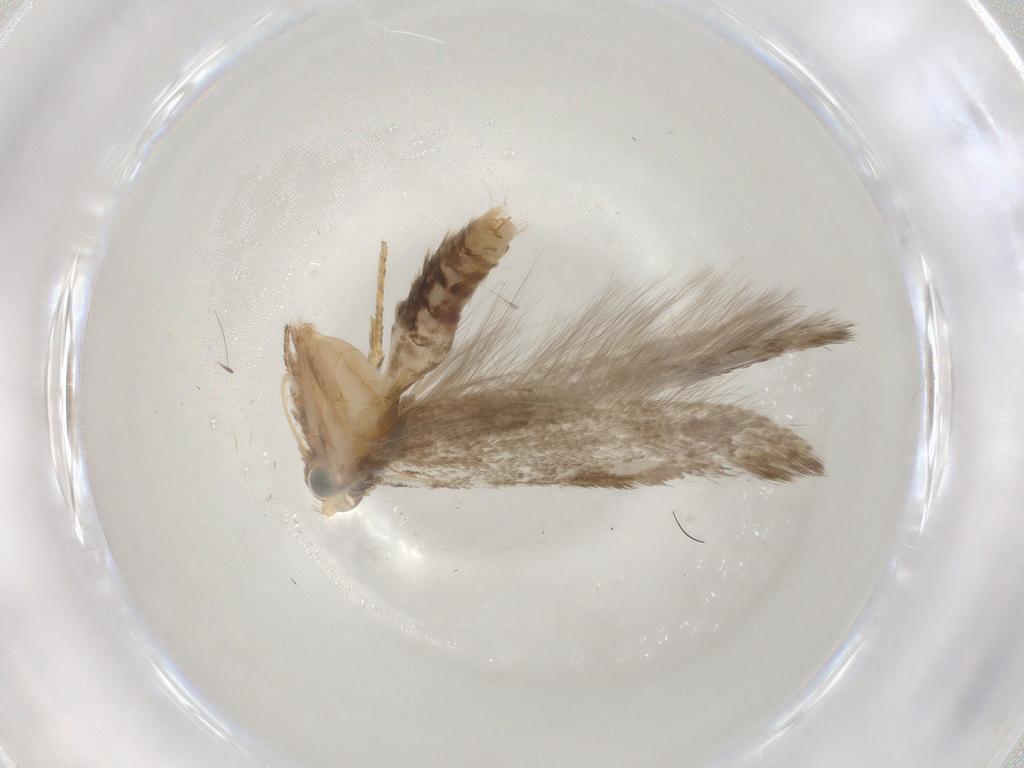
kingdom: Animalia
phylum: Arthropoda
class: Insecta
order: Lepidoptera
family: Coleophoridae
